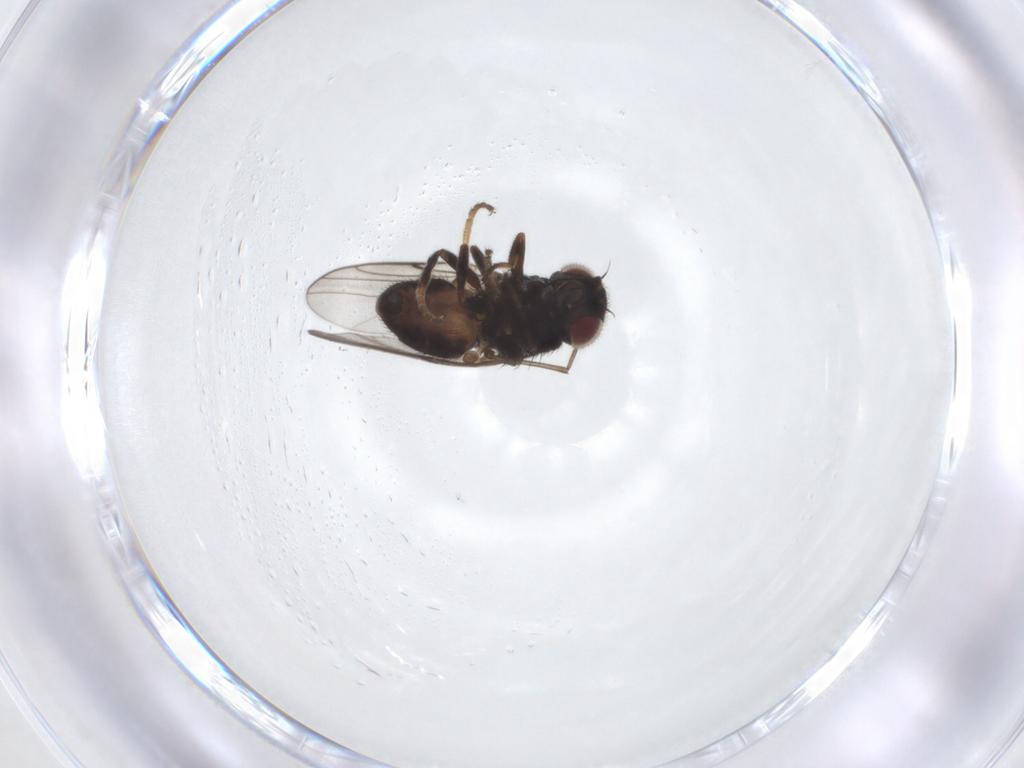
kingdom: Animalia
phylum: Arthropoda
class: Insecta
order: Diptera
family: Chloropidae
